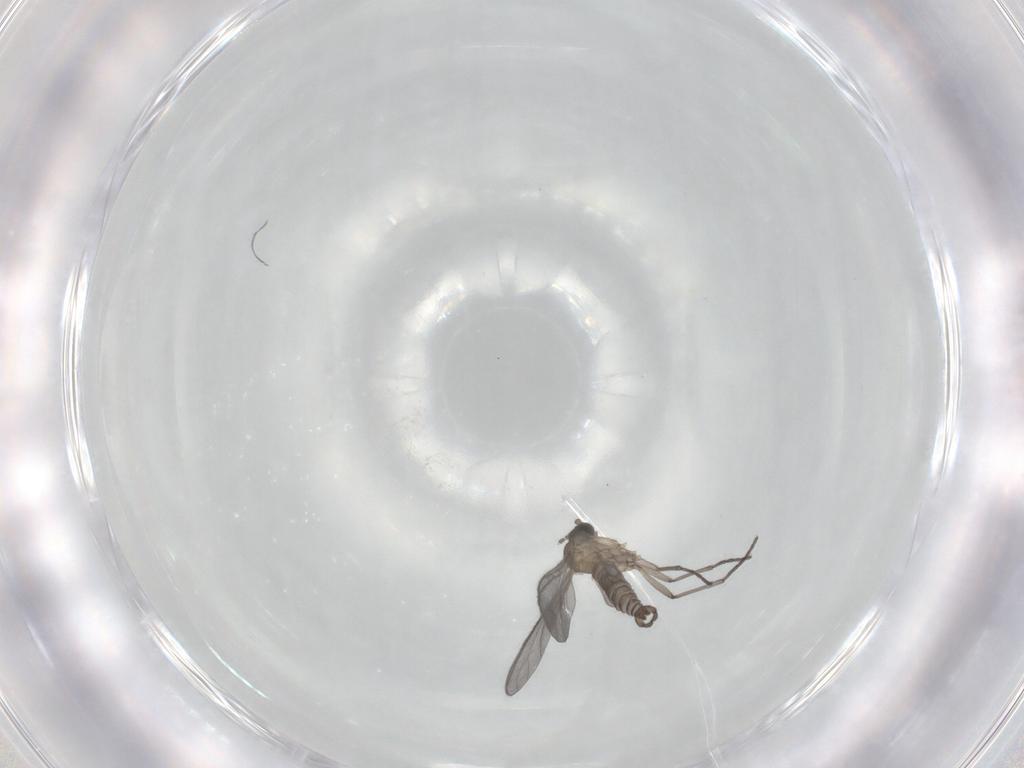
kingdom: Animalia
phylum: Arthropoda
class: Insecta
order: Diptera
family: Sciaridae
